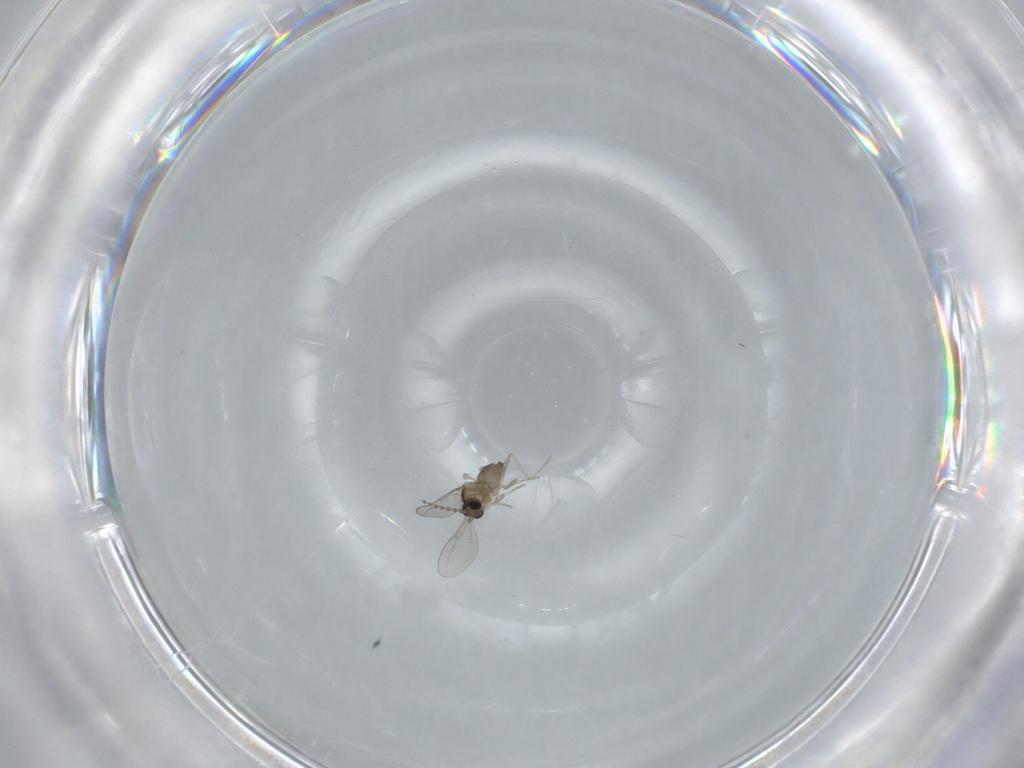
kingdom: Animalia
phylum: Arthropoda
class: Insecta
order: Diptera
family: Cecidomyiidae
